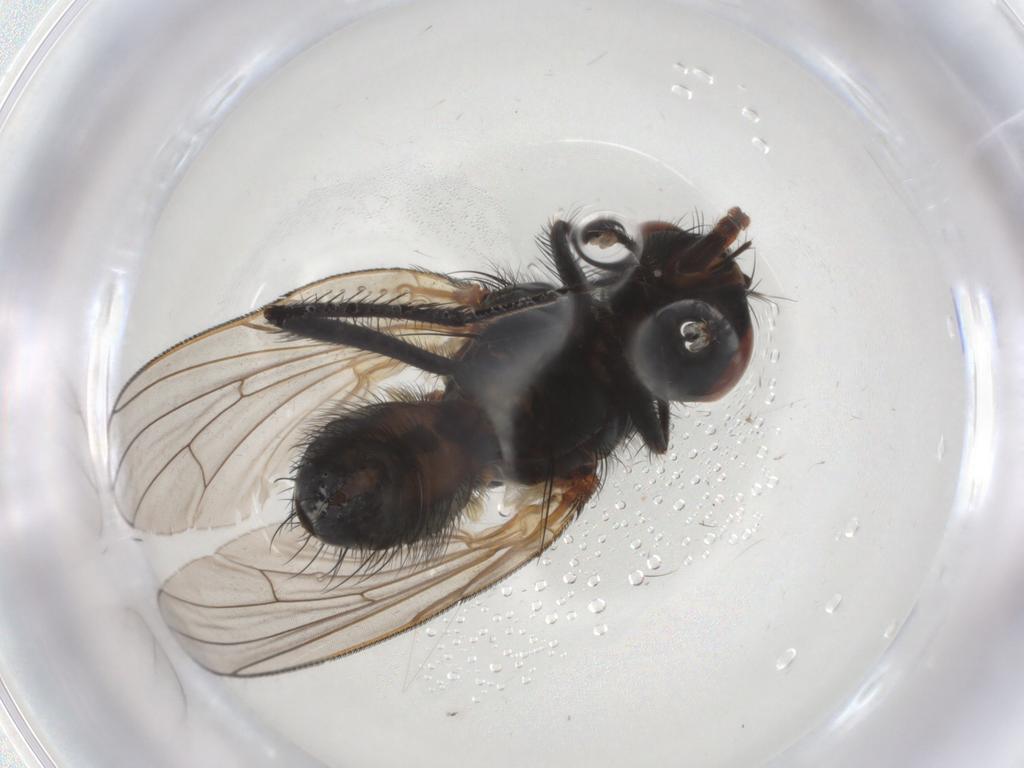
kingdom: Animalia
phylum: Arthropoda
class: Insecta
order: Diptera
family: Anthomyiidae
